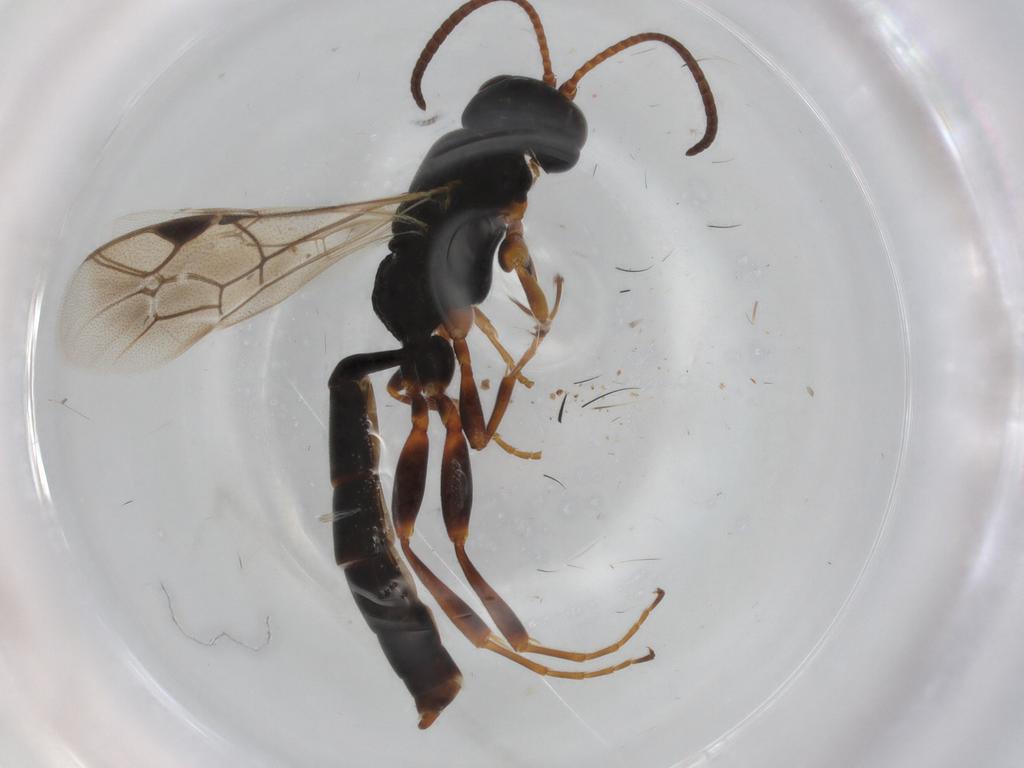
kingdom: Animalia
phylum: Arthropoda
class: Insecta
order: Hymenoptera
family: Ichneumonidae
